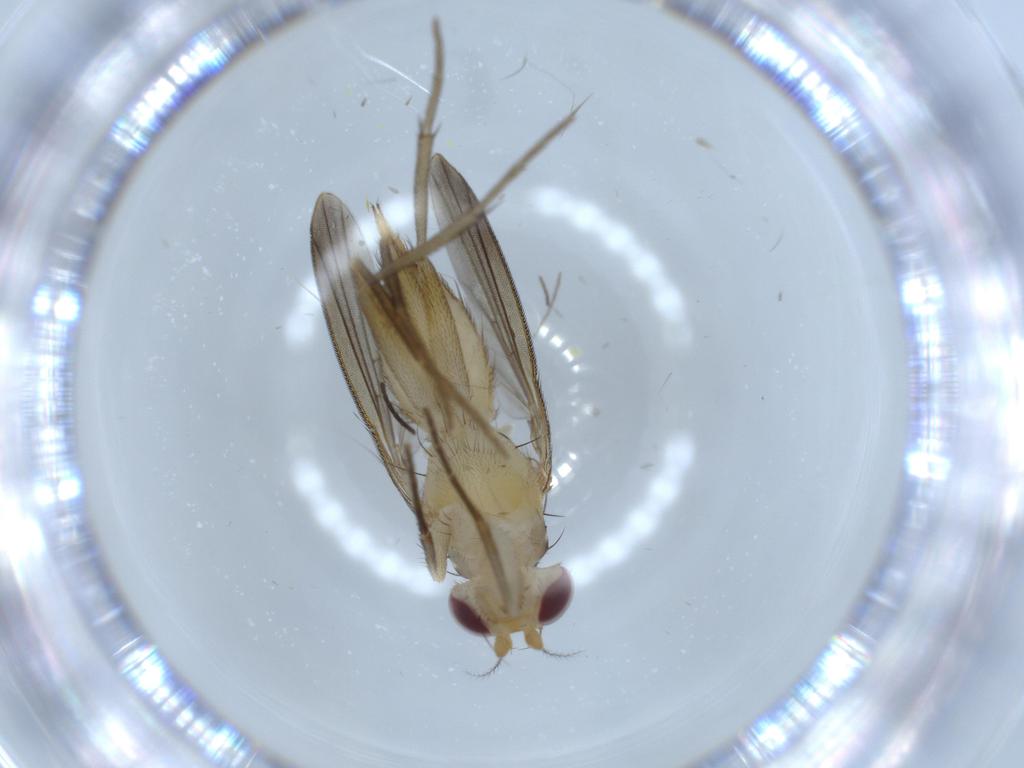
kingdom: Animalia
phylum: Arthropoda
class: Insecta
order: Diptera
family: Clusiidae
